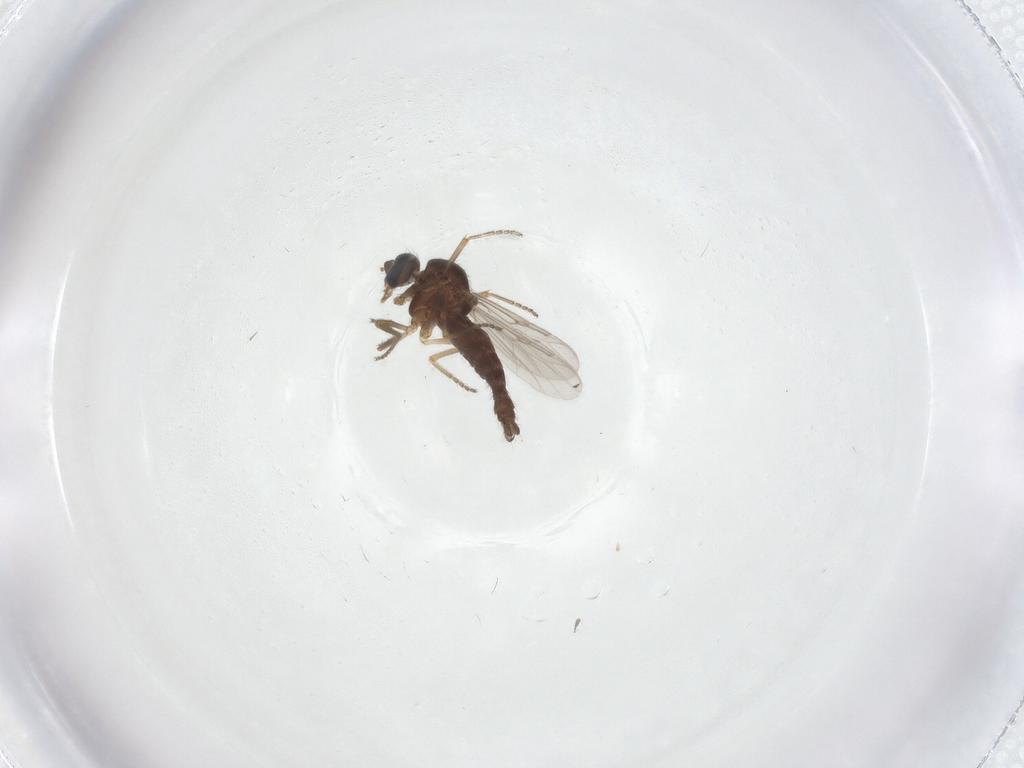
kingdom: Animalia
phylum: Arthropoda
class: Insecta
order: Diptera
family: Ceratopogonidae
